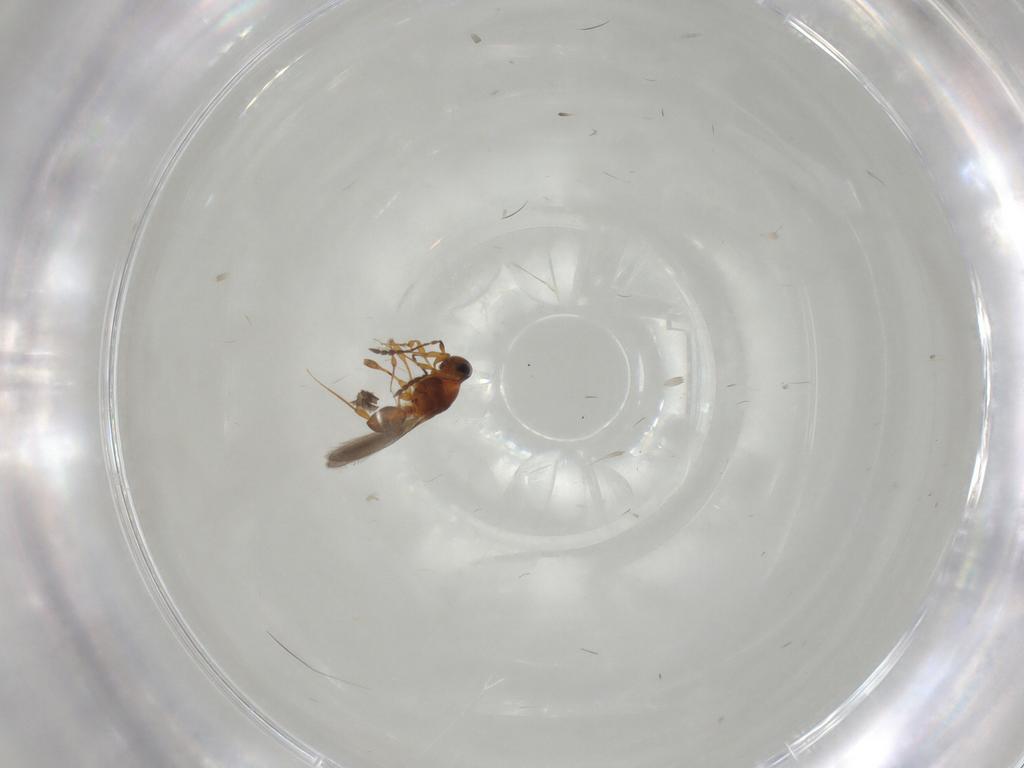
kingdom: Animalia
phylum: Arthropoda
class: Insecta
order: Hymenoptera
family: Platygastridae
